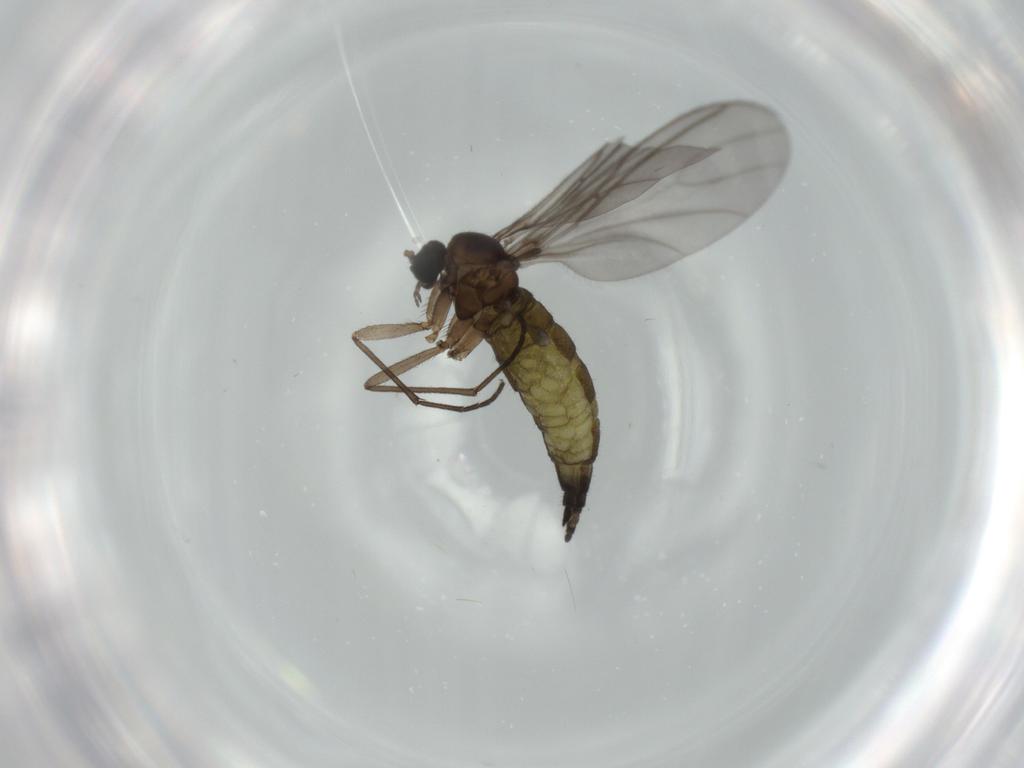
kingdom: Animalia
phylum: Arthropoda
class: Insecta
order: Diptera
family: Sciaridae
